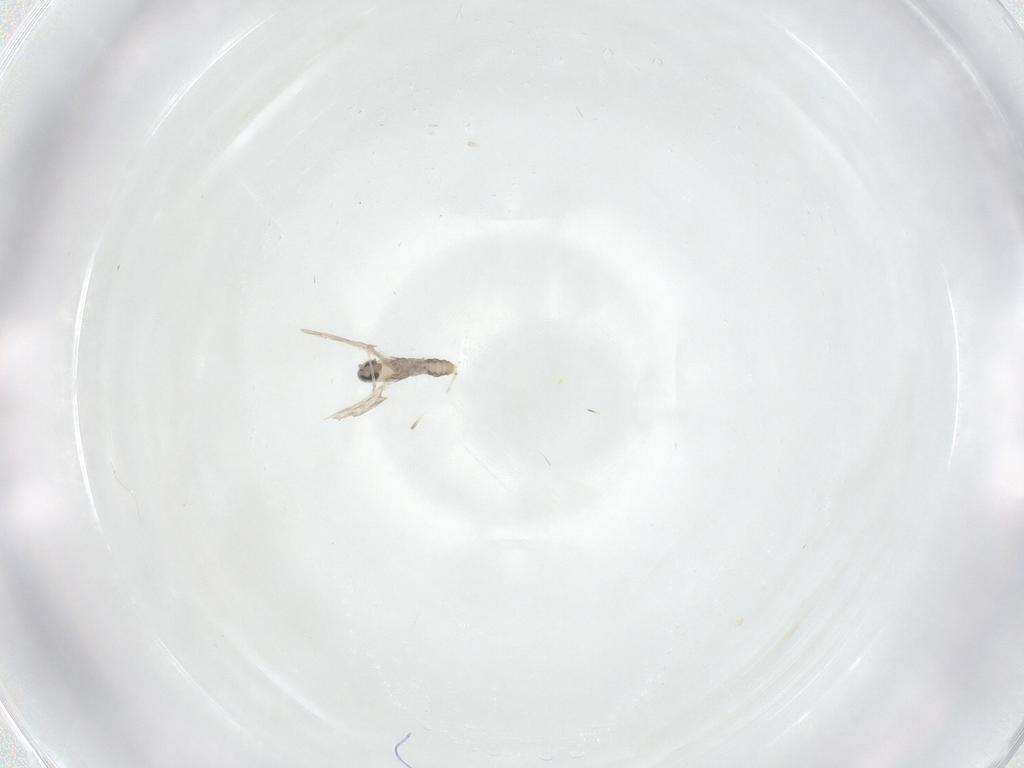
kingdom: Animalia
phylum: Arthropoda
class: Insecta
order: Diptera
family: Cecidomyiidae
